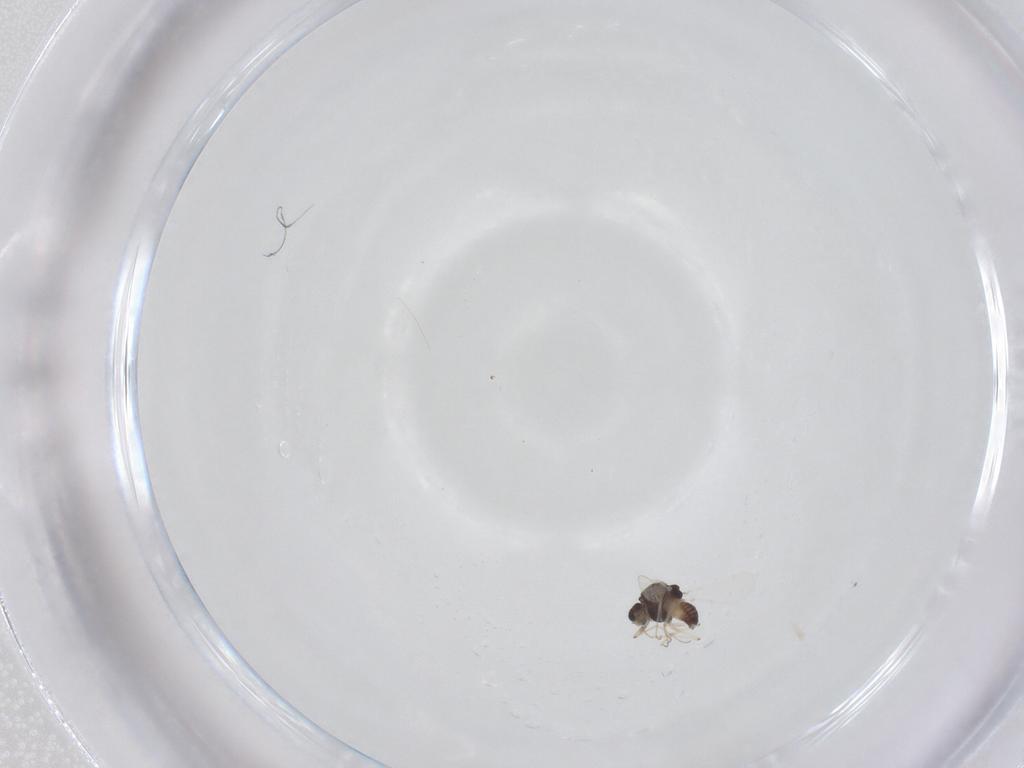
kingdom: Animalia
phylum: Arthropoda
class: Insecta
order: Diptera
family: Chironomidae
